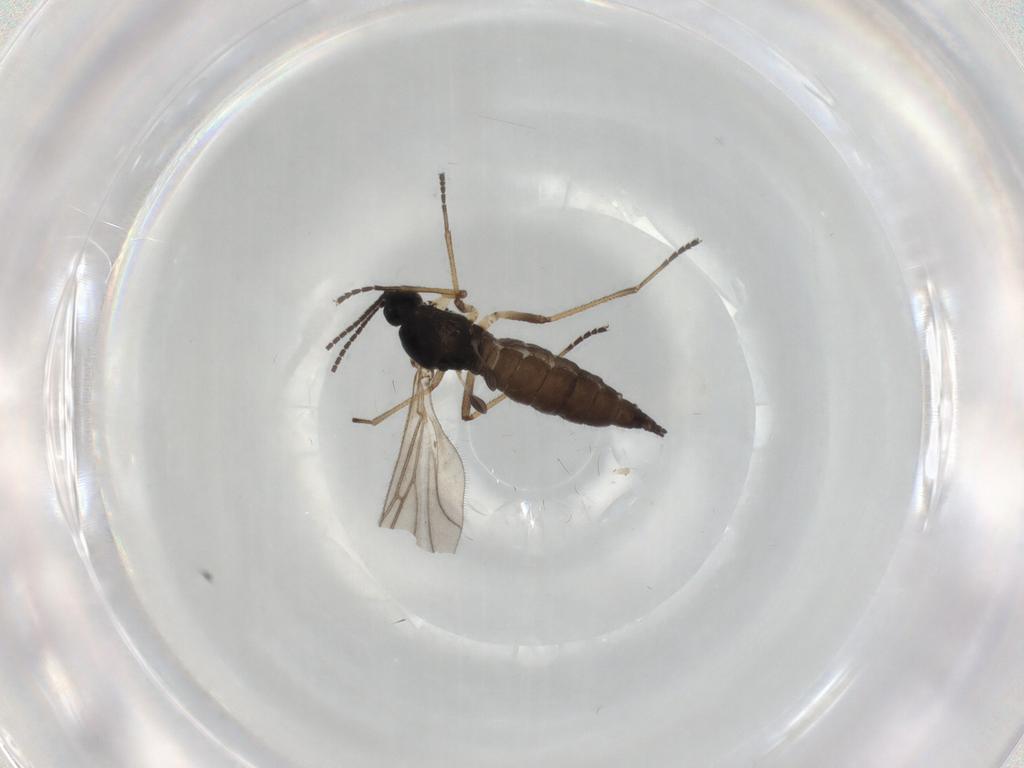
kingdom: Animalia
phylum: Arthropoda
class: Insecta
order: Diptera
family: Sciaridae
